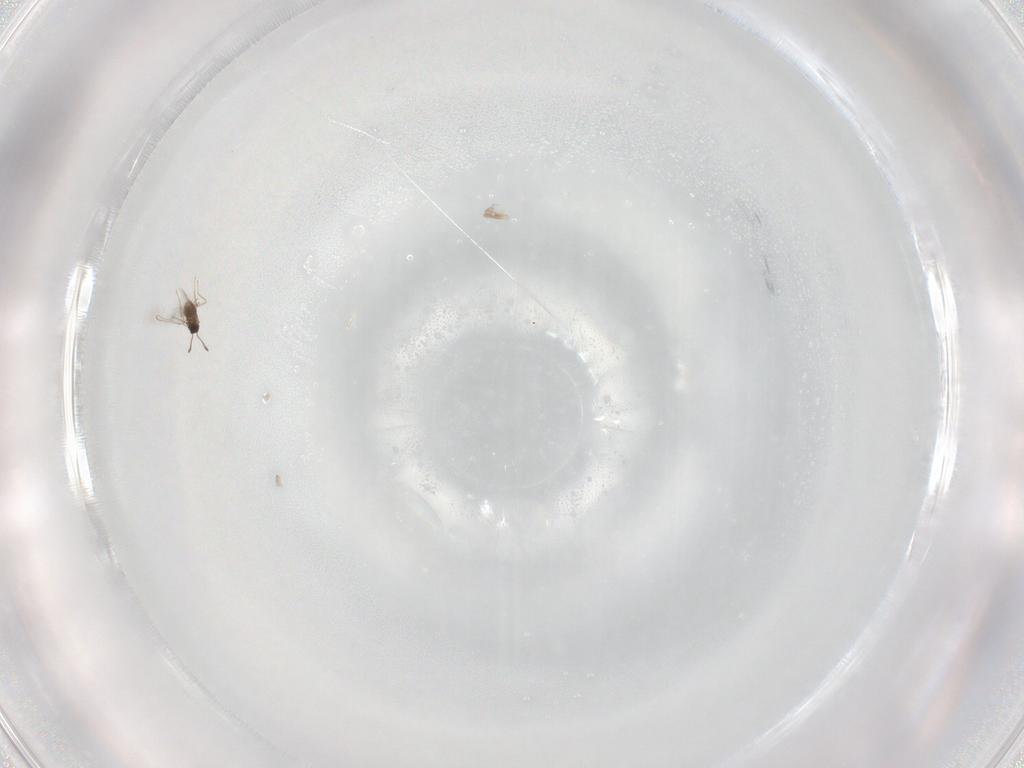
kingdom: Animalia
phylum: Arthropoda
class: Insecta
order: Hymenoptera
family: Mymaridae
